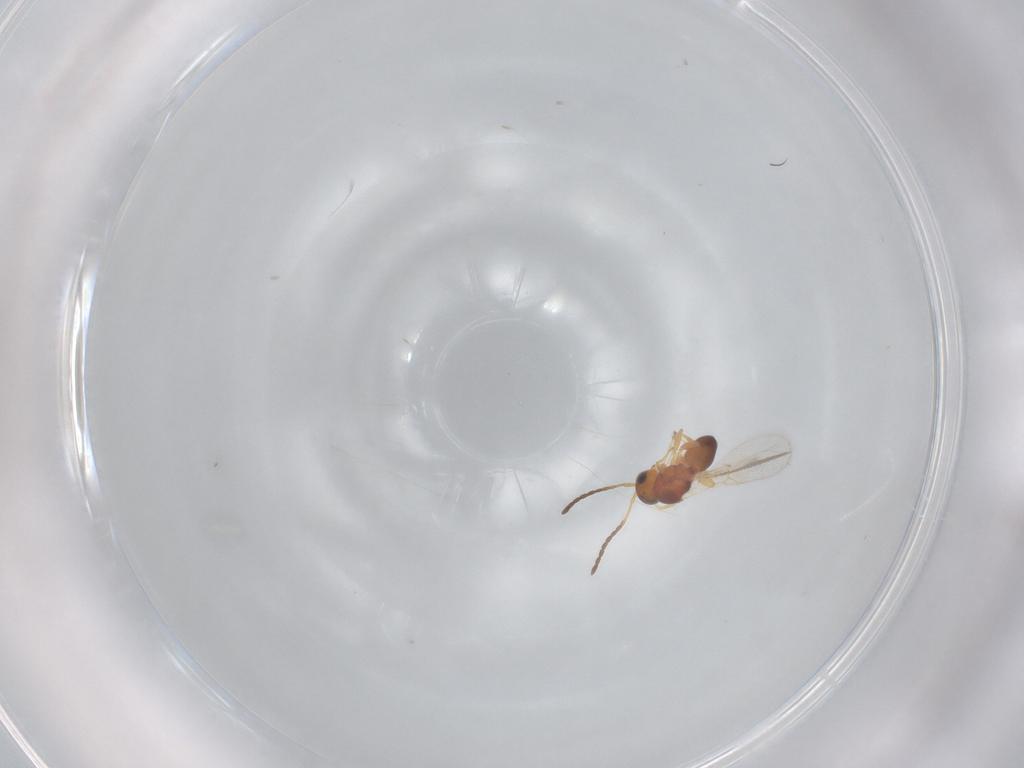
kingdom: Animalia
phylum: Arthropoda
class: Insecta
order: Hymenoptera
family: Figitidae
